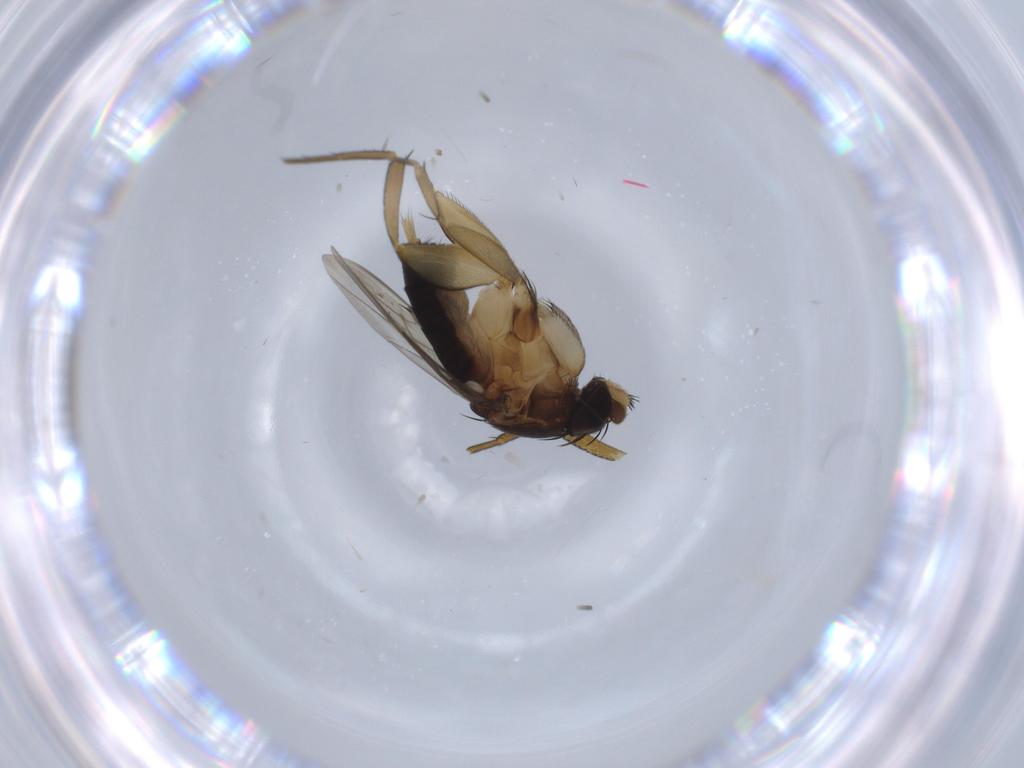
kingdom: Animalia
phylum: Arthropoda
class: Insecta
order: Diptera
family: Phoridae
